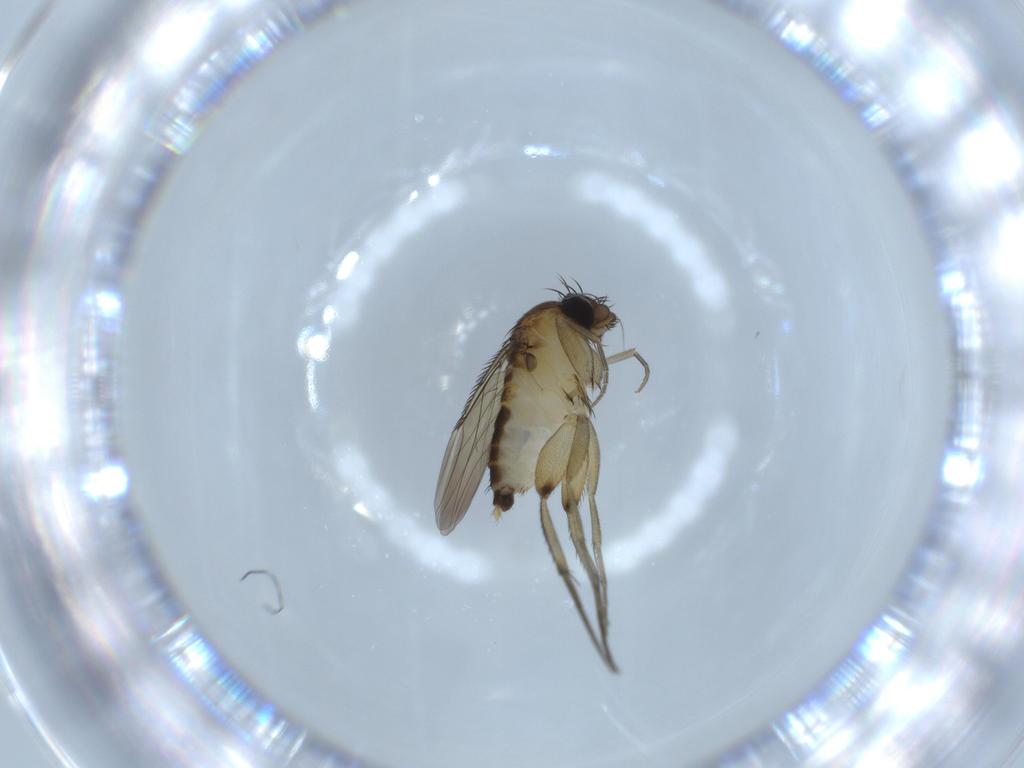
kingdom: Animalia
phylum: Arthropoda
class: Insecta
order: Diptera
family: Phoridae
